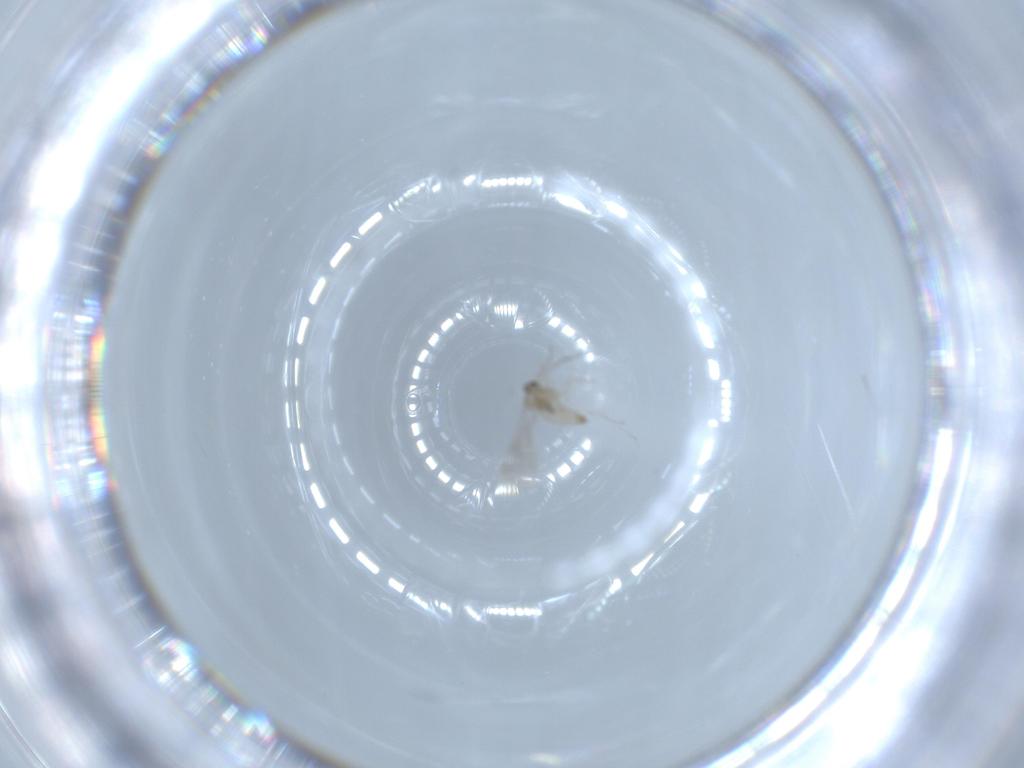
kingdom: Animalia
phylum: Arthropoda
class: Insecta
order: Diptera
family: Cecidomyiidae
